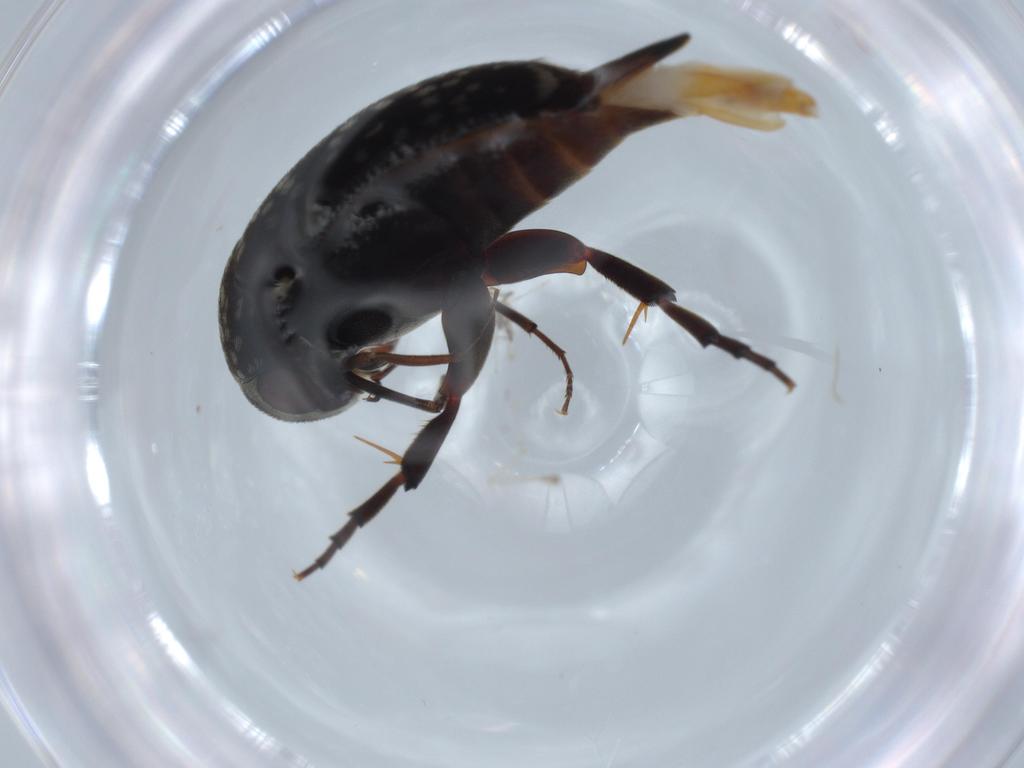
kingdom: Animalia
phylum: Arthropoda
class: Insecta
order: Coleoptera
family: Mordellidae
